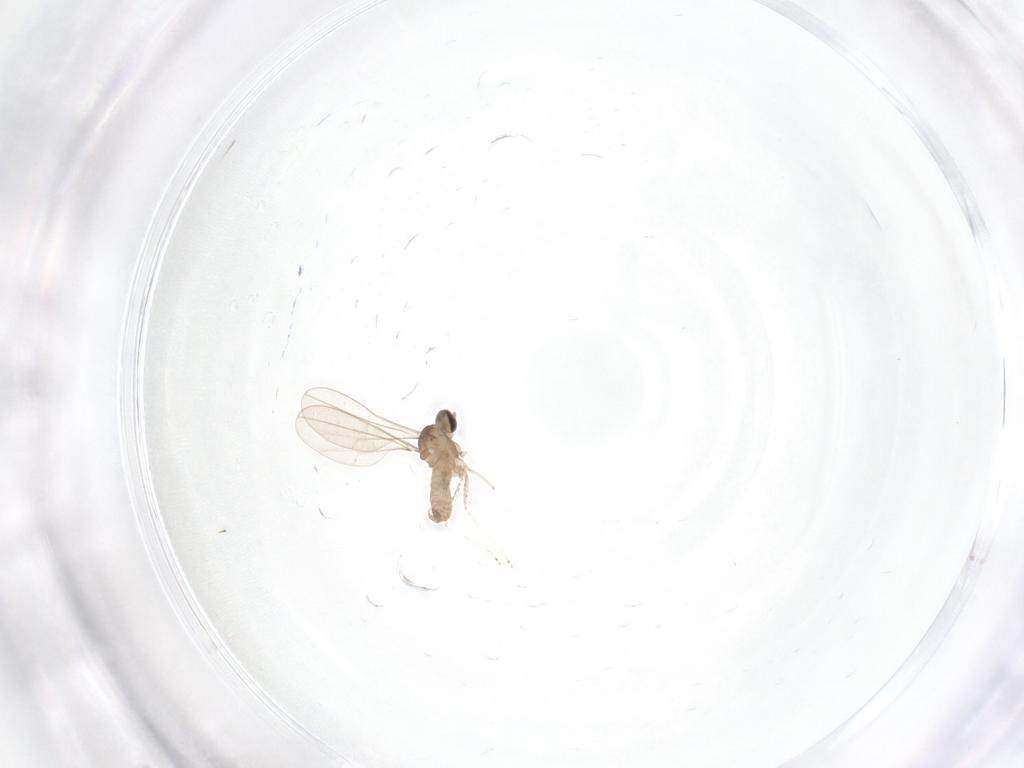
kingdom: Animalia
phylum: Arthropoda
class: Insecta
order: Diptera
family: Cecidomyiidae
